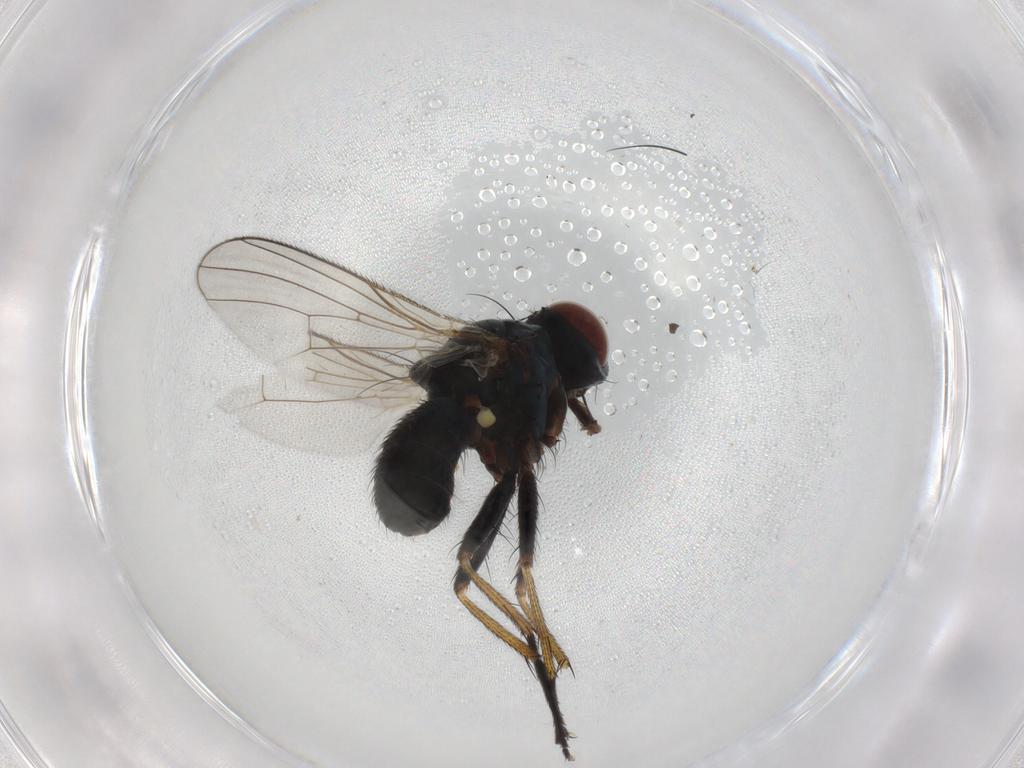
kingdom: Animalia
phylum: Arthropoda
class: Insecta
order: Diptera
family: Muscidae
